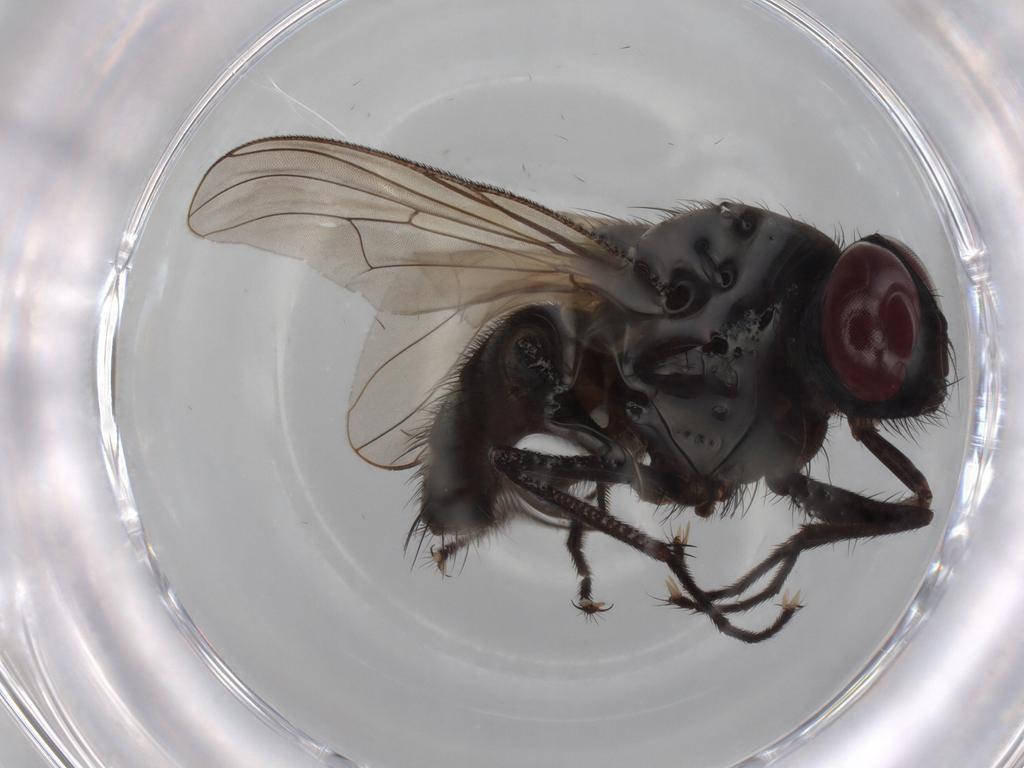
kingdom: Animalia
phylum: Arthropoda
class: Insecta
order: Diptera
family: Muscidae
